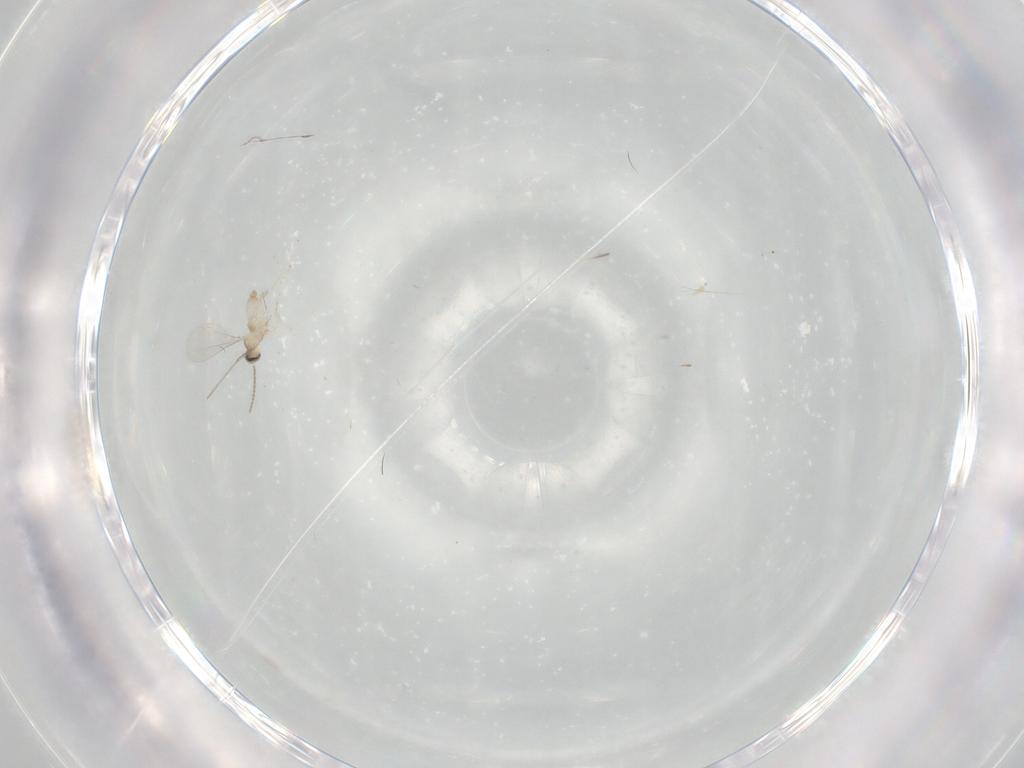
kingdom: Animalia
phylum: Arthropoda
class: Insecta
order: Diptera
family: Cecidomyiidae
